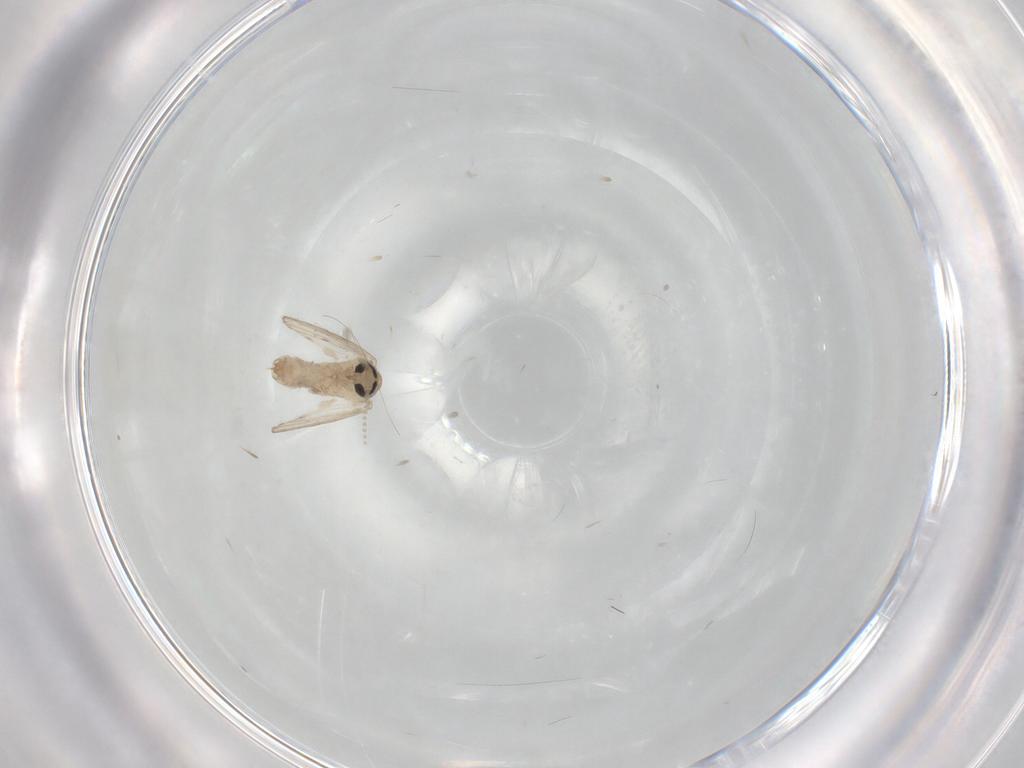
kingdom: Animalia
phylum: Arthropoda
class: Insecta
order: Diptera
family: Psychodidae
